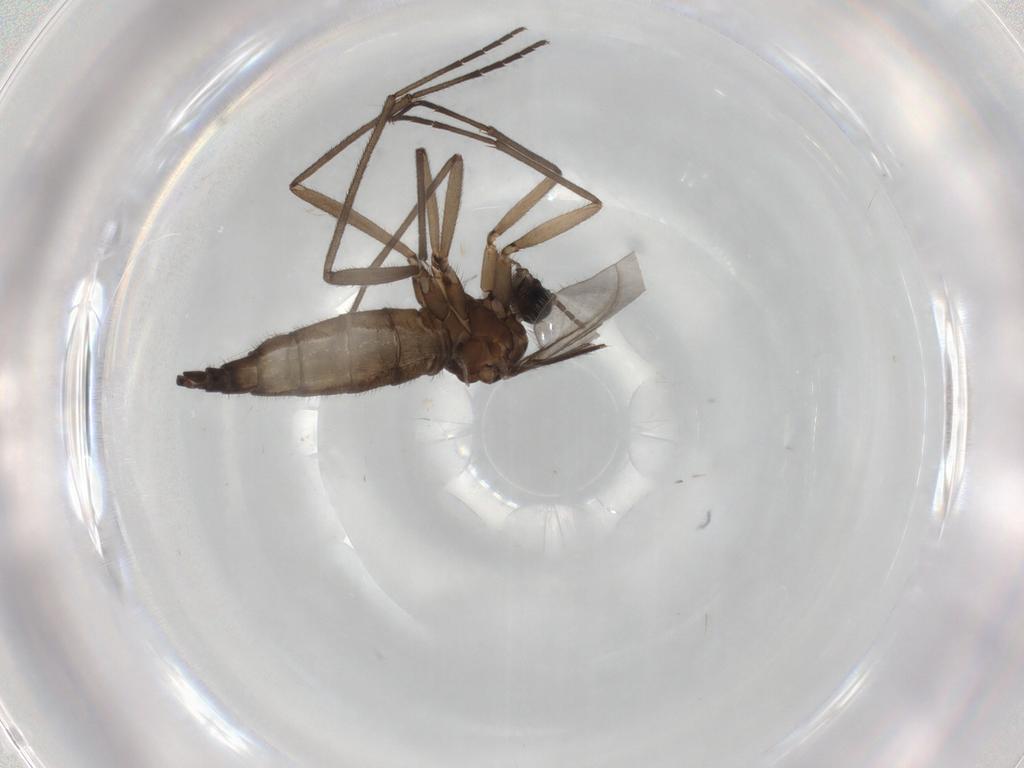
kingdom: Animalia
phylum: Arthropoda
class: Insecta
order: Diptera
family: Sciaridae
